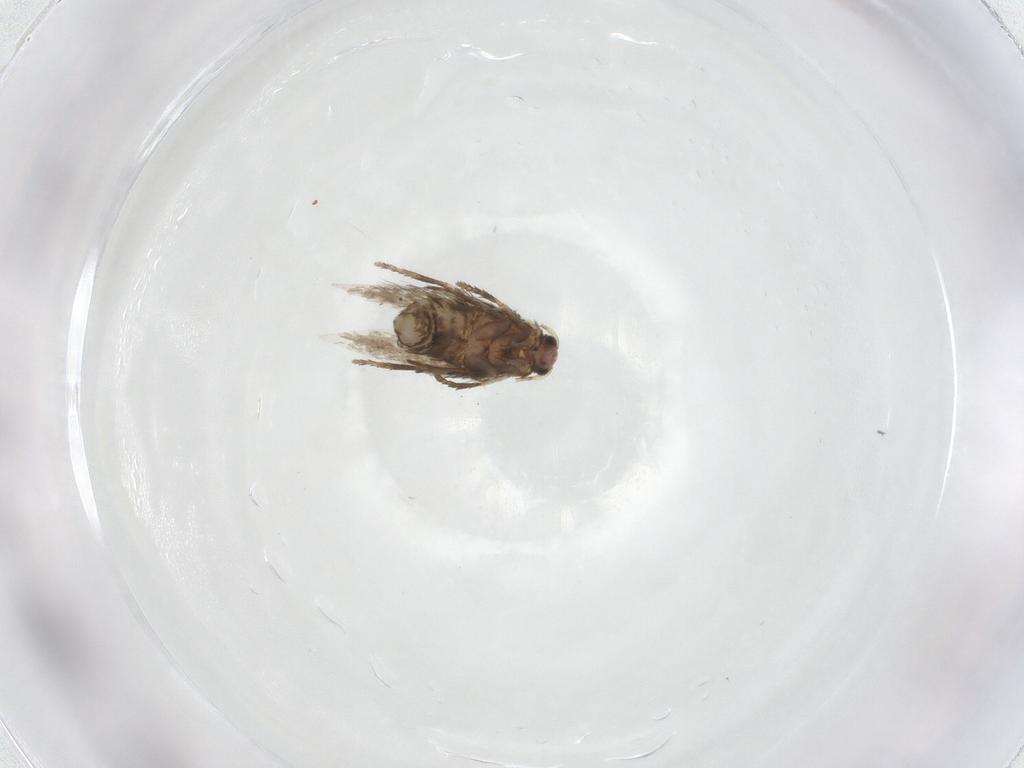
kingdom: Animalia
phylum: Arthropoda
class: Insecta
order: Lepidoptera
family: Nepticulidae
